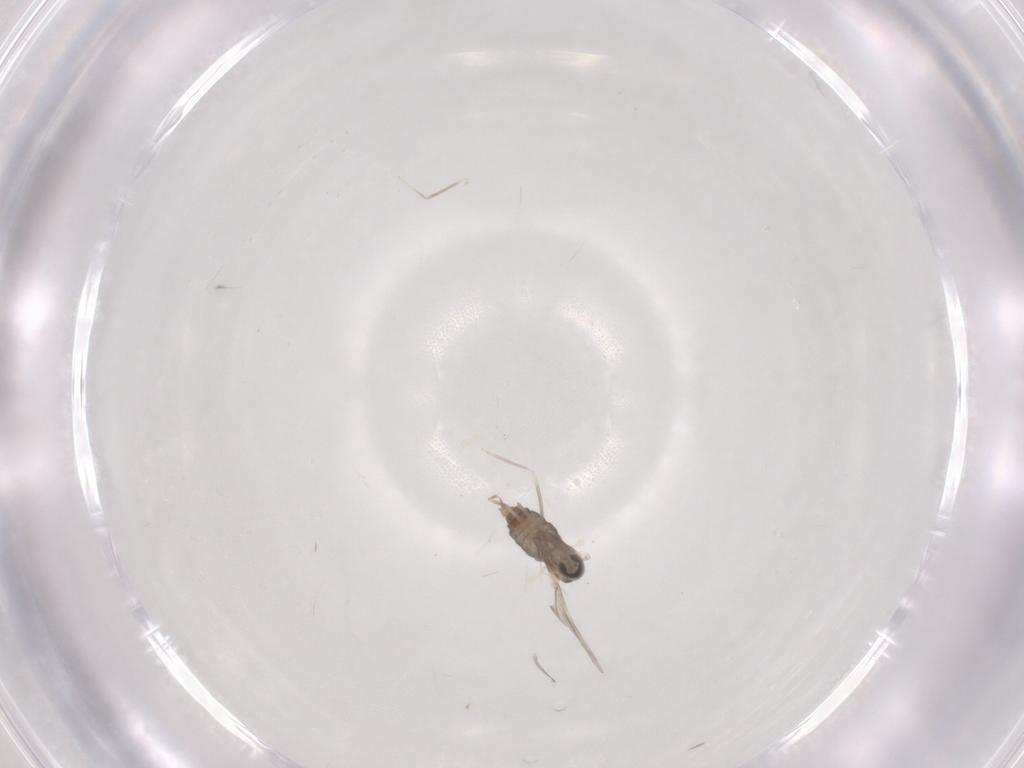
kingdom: Animalia
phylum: Arthropoda
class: Insecta
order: Diptera
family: Cecidomyiidae
